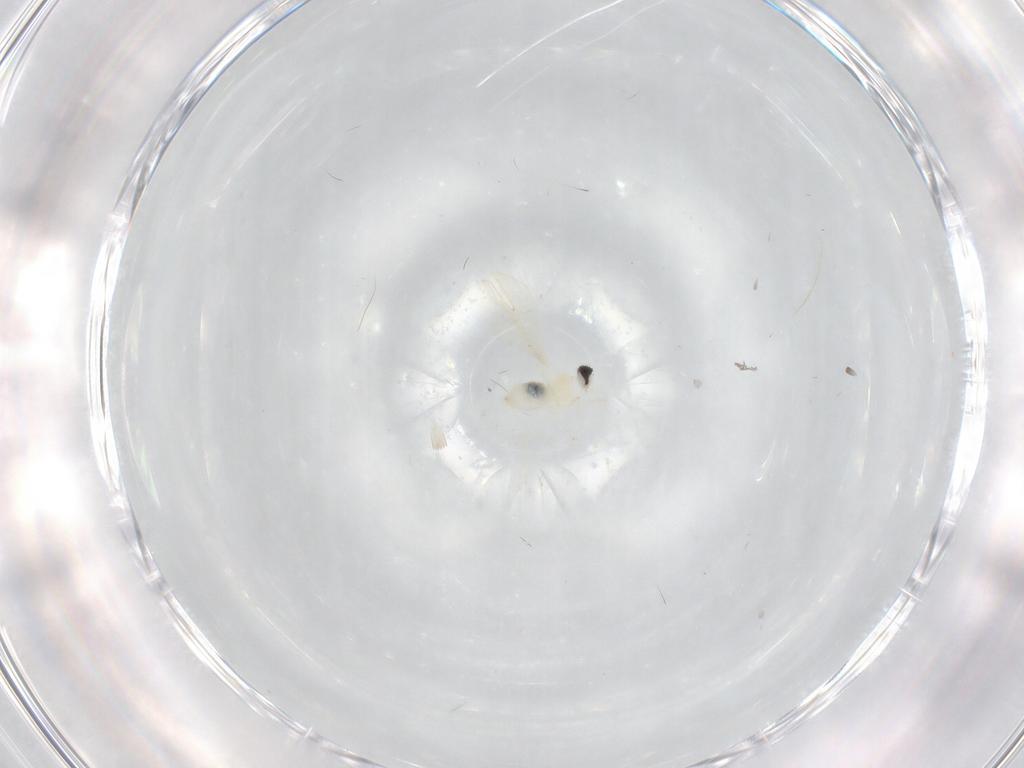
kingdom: Animalia
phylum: Arthropoda
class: Insecta
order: Diptera
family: Cecidomyiidae
